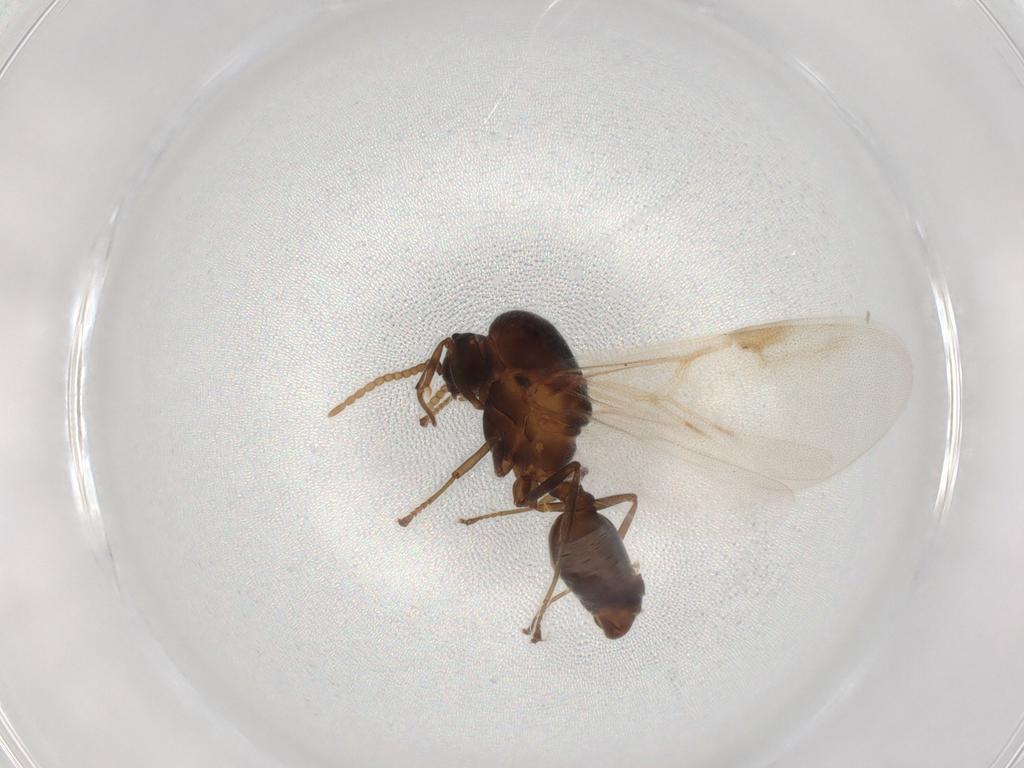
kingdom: Animalia
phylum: Arthropoda
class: Insecta
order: Hymenoptera
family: Formicidae
